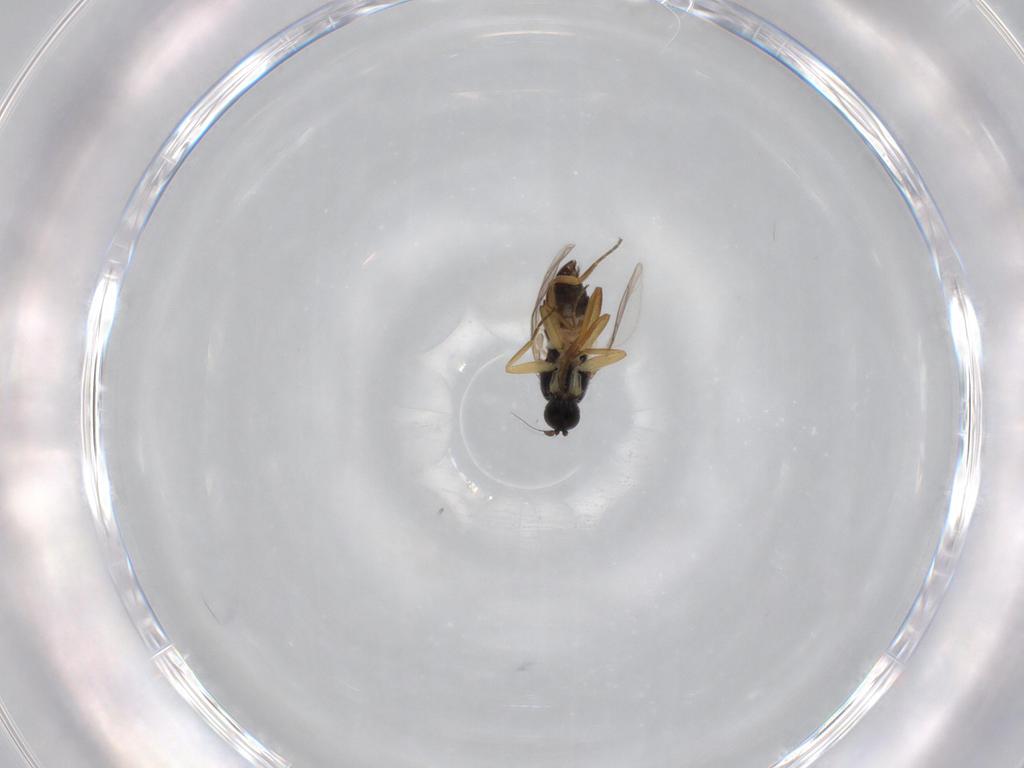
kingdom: Animalia
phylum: Arthropoda
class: Insecta
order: Diptera
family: Hybotidae
